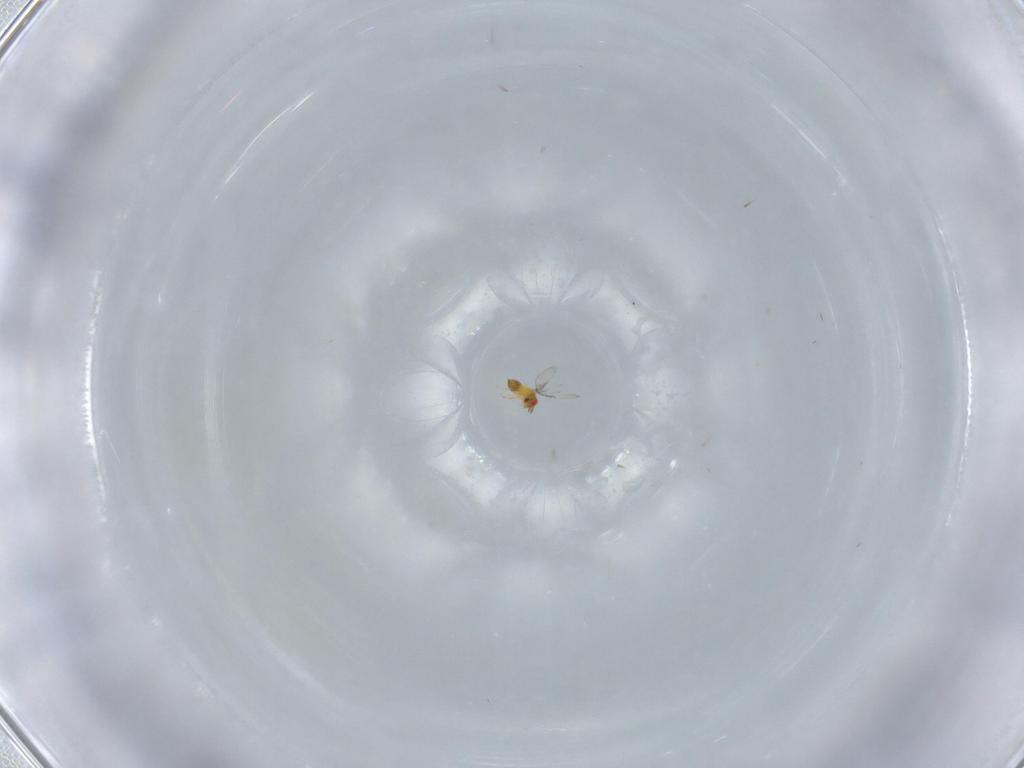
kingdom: Animalia
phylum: Arthropoda
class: Insecta
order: Hymenoptera
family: Trichogrammatidae
